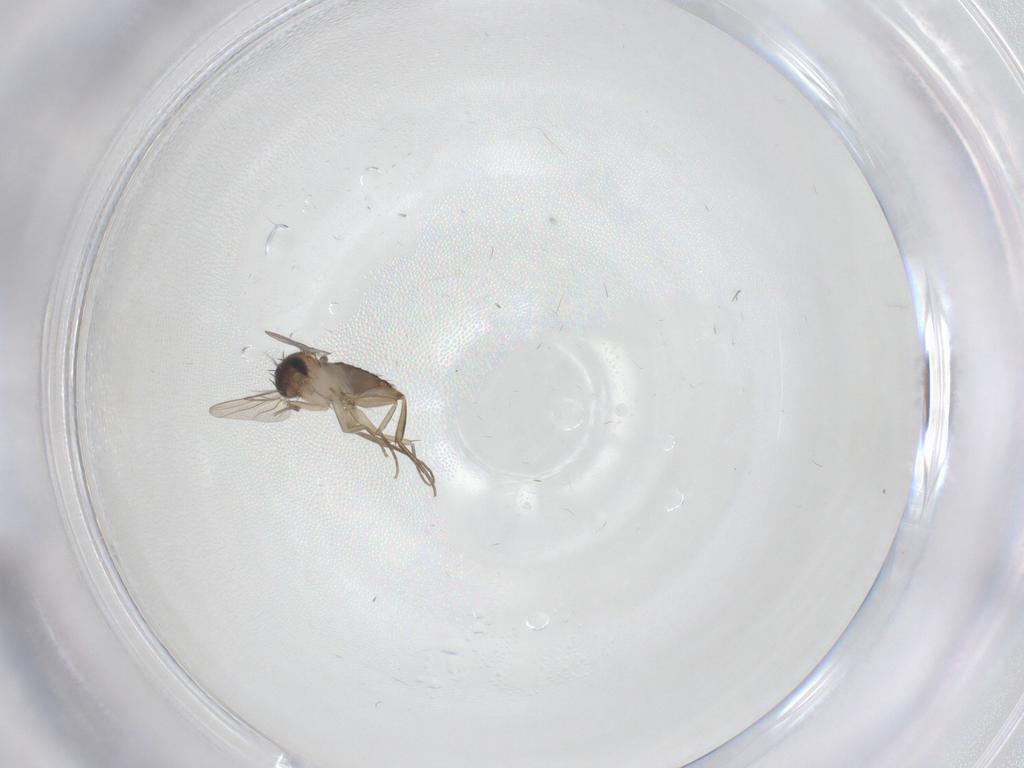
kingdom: Animalia
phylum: Arthropoda
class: Insecta
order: Diptera
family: Phoridae
